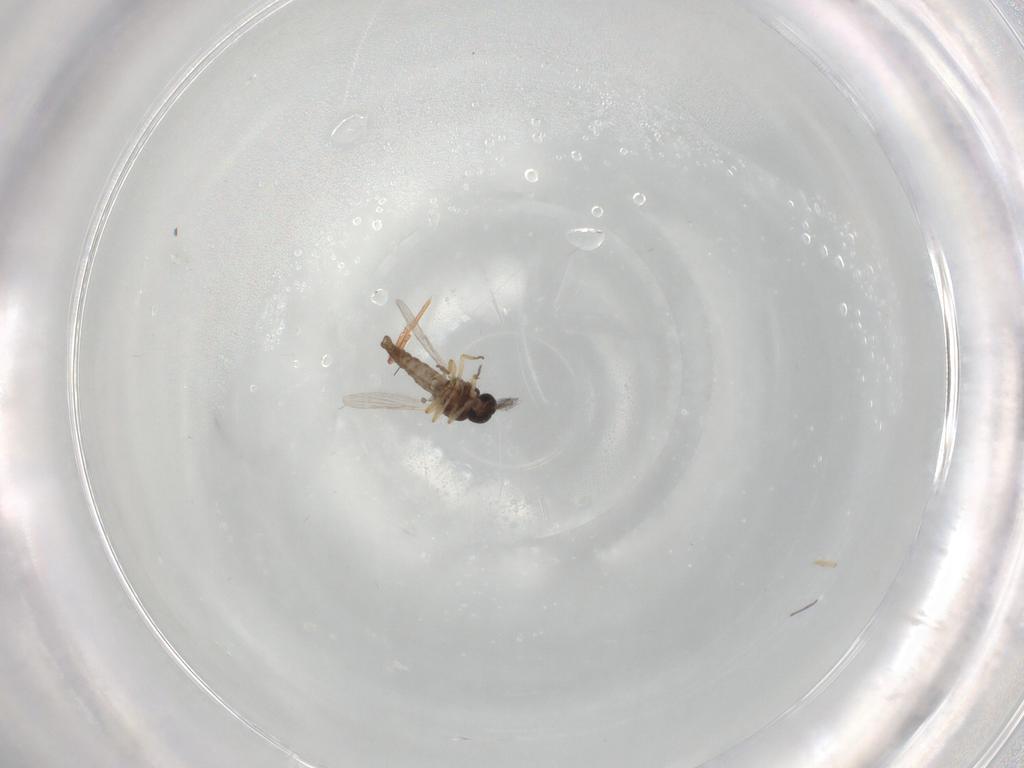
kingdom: Animalia
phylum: Arthropoda
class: Insecta
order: Diptera
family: Ceratopogonidae
